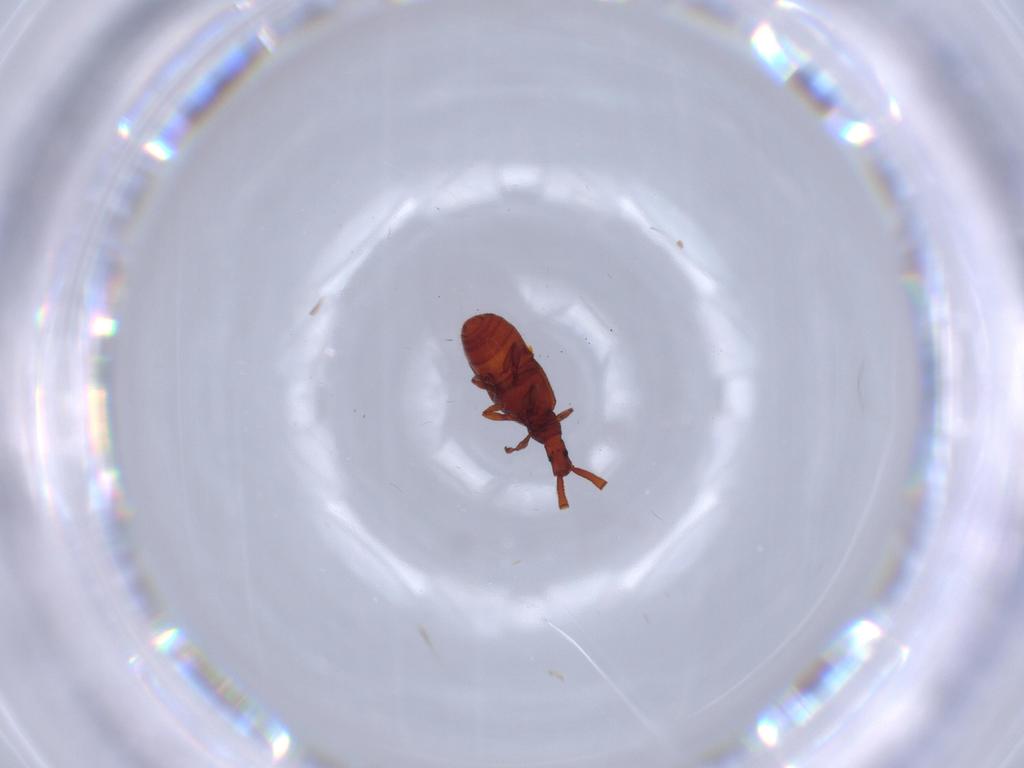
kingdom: Animalia
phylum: Arthropoda
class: Insecta
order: Coleoptera
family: Staphylinidae
